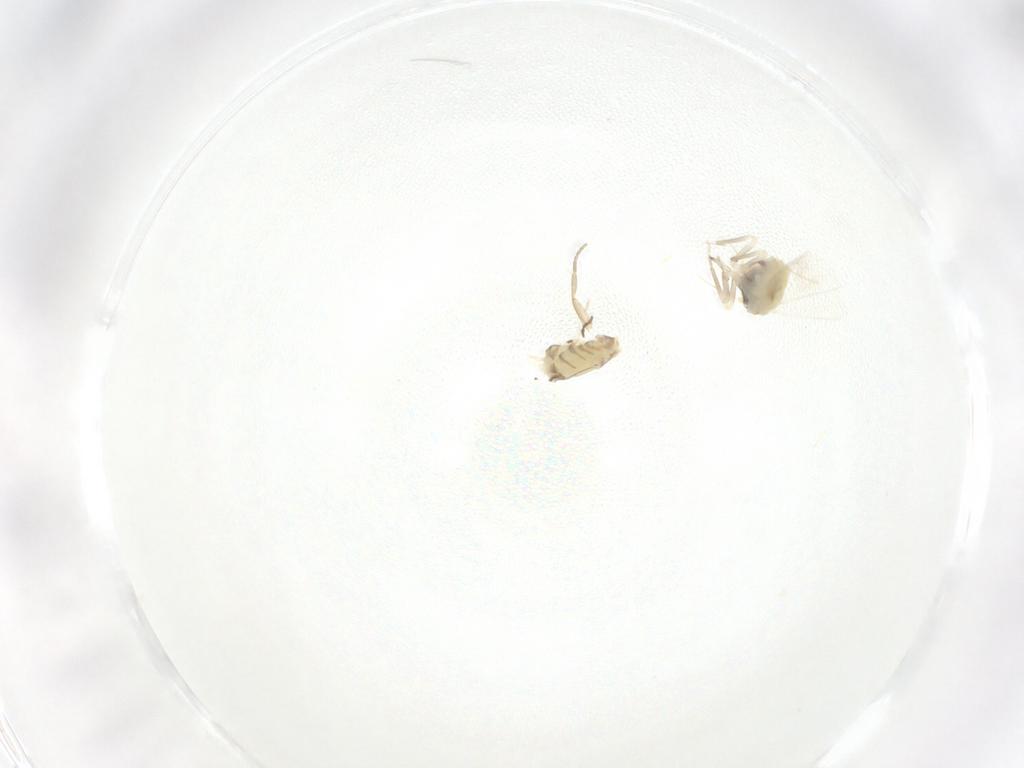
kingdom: Animalia
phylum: Arthropoda
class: Insecta
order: Hemiptera
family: Aleyrodidae
